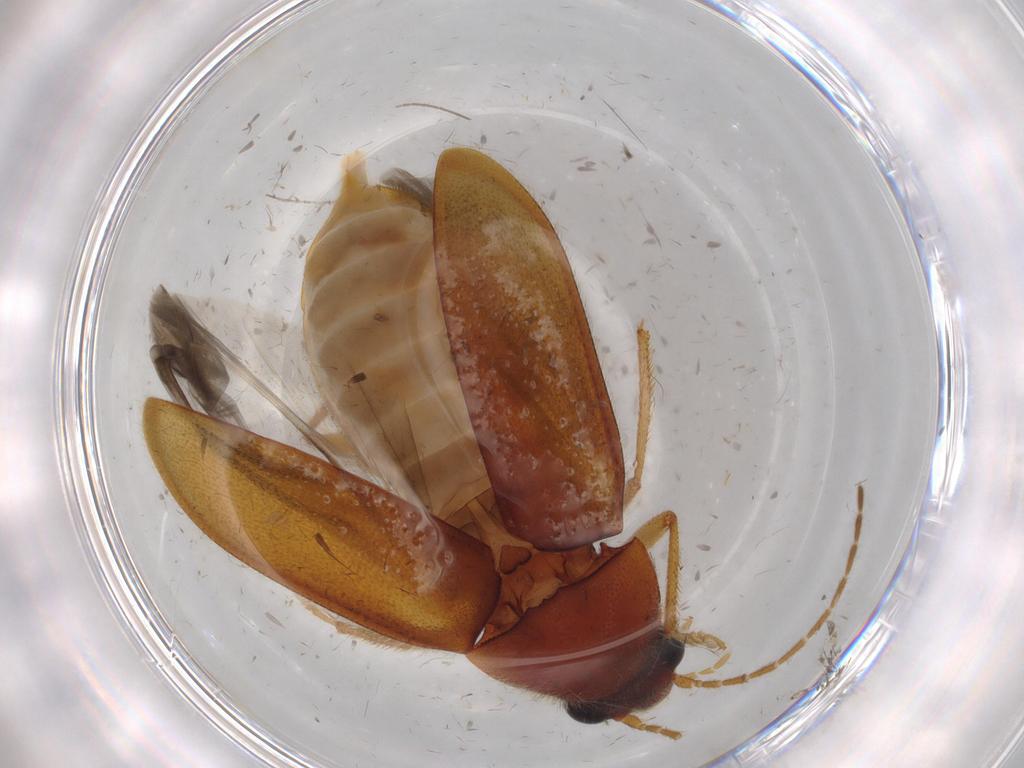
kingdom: Animalia
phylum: Arthropoda
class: Insecta
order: Coleoptera
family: Ptilodactylidae
